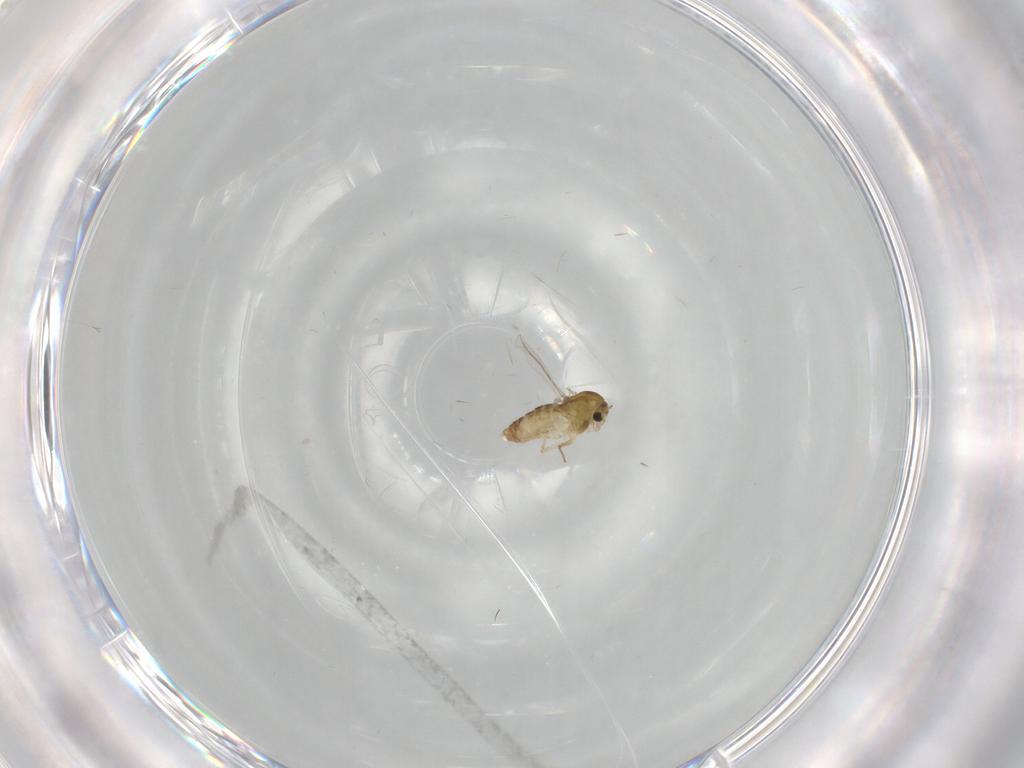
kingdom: Animalia
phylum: Arthropoda
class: Insecta
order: Diptera
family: Chironomidae
